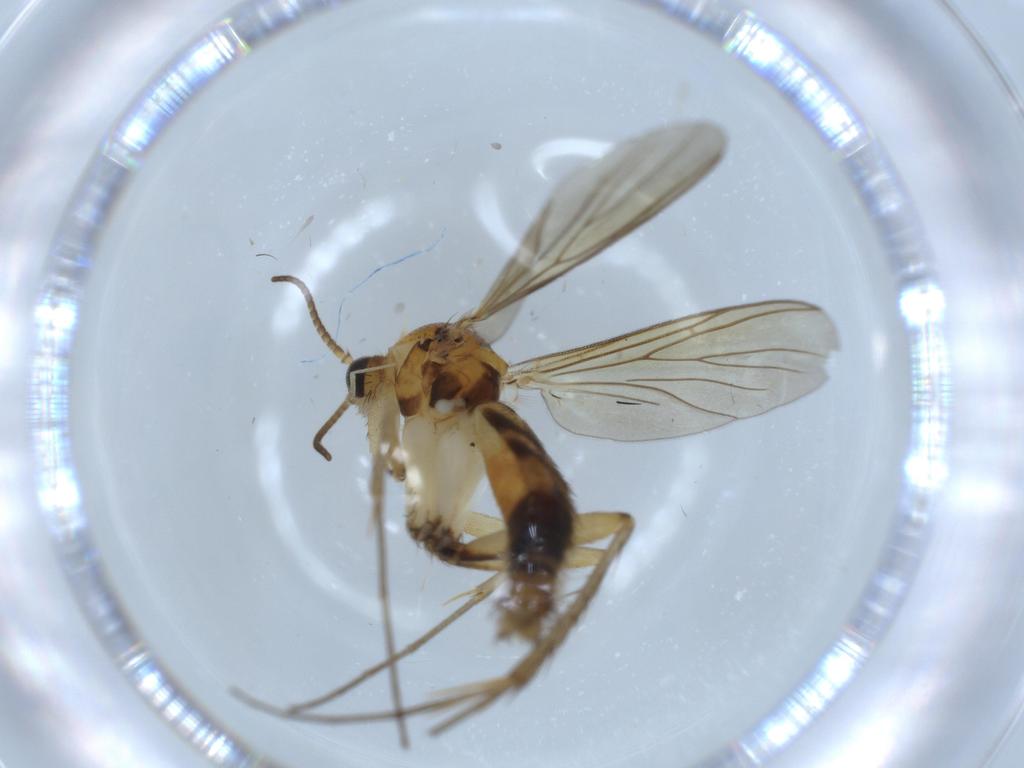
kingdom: Animalia
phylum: Arthropoda
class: Insecta
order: Diptera
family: Mycetophilidae
